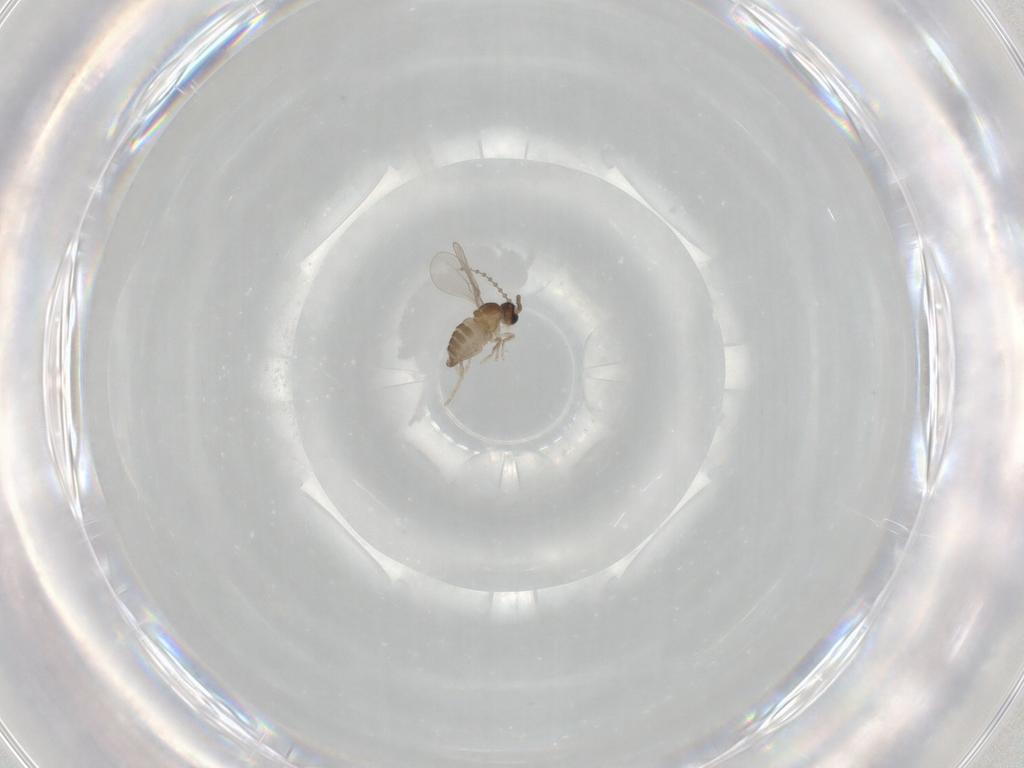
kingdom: Animalia
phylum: Arthropoda
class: Insecta
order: Diptera
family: Cecidomyiidae
